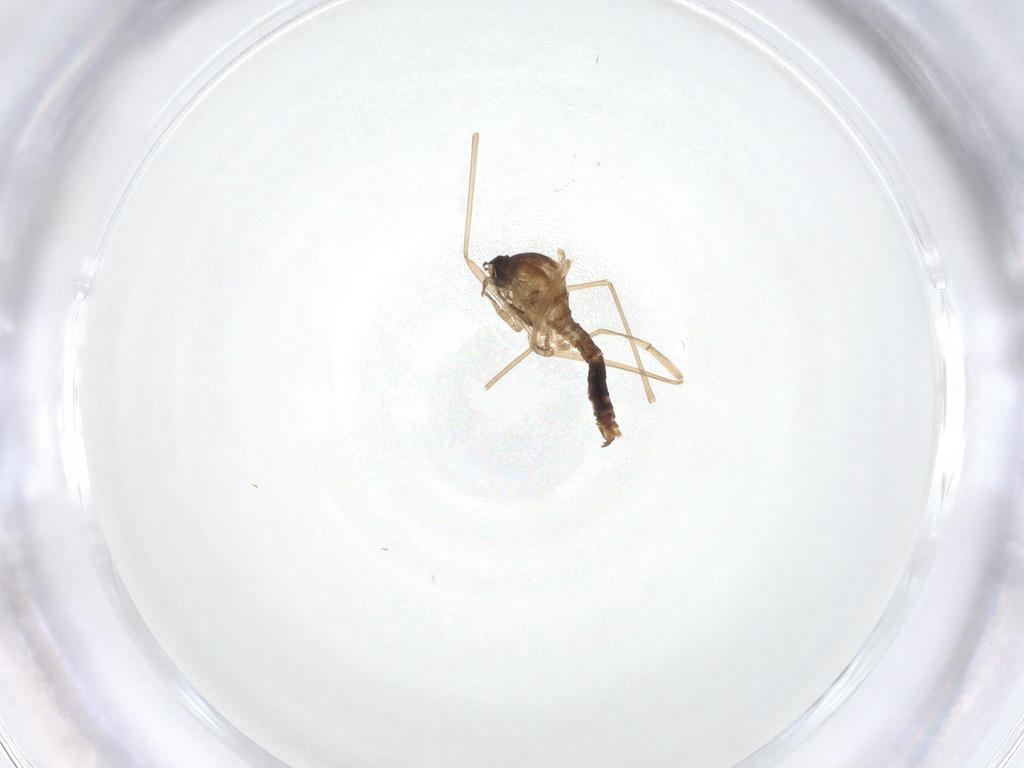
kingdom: Animalia
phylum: Arthropoda
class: Insecta
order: Diptera
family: Cecidomyiidae
